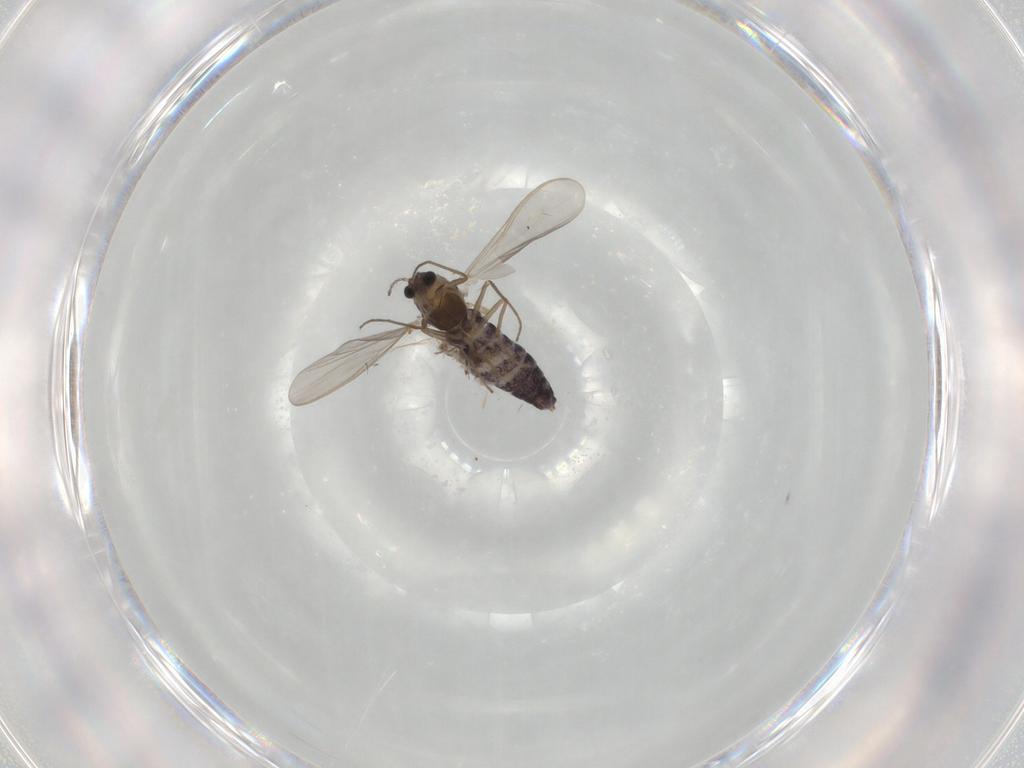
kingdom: Animalia
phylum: Arthropoda
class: Insecta
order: Diptera
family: Chironomidae
